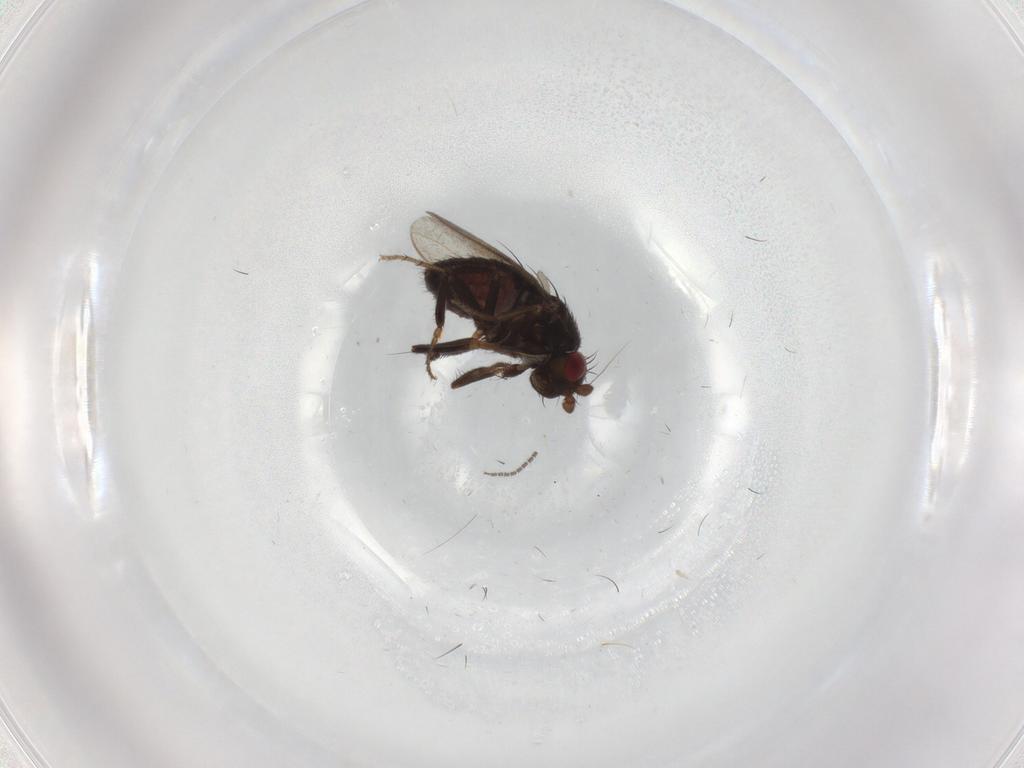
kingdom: Animalia
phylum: Arthropoda
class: Insecta
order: Diptera
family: Sphaeroceridae
